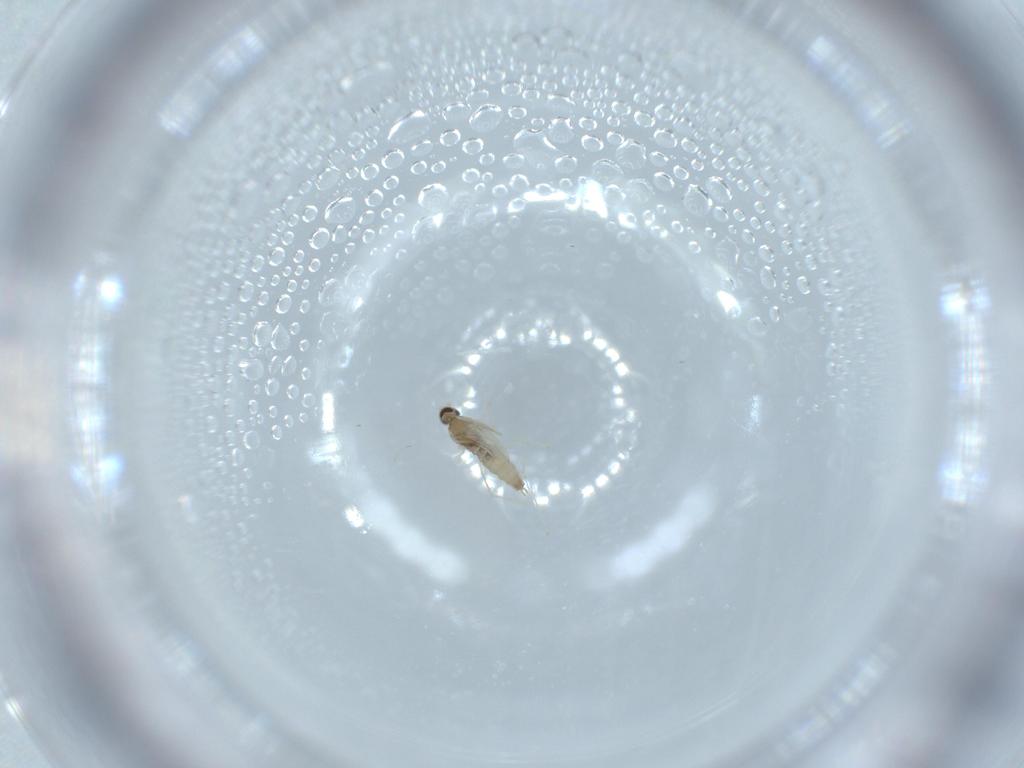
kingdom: Animalia
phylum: Arthropoda
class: Insecta
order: Diptera
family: Cecidomyiidae
